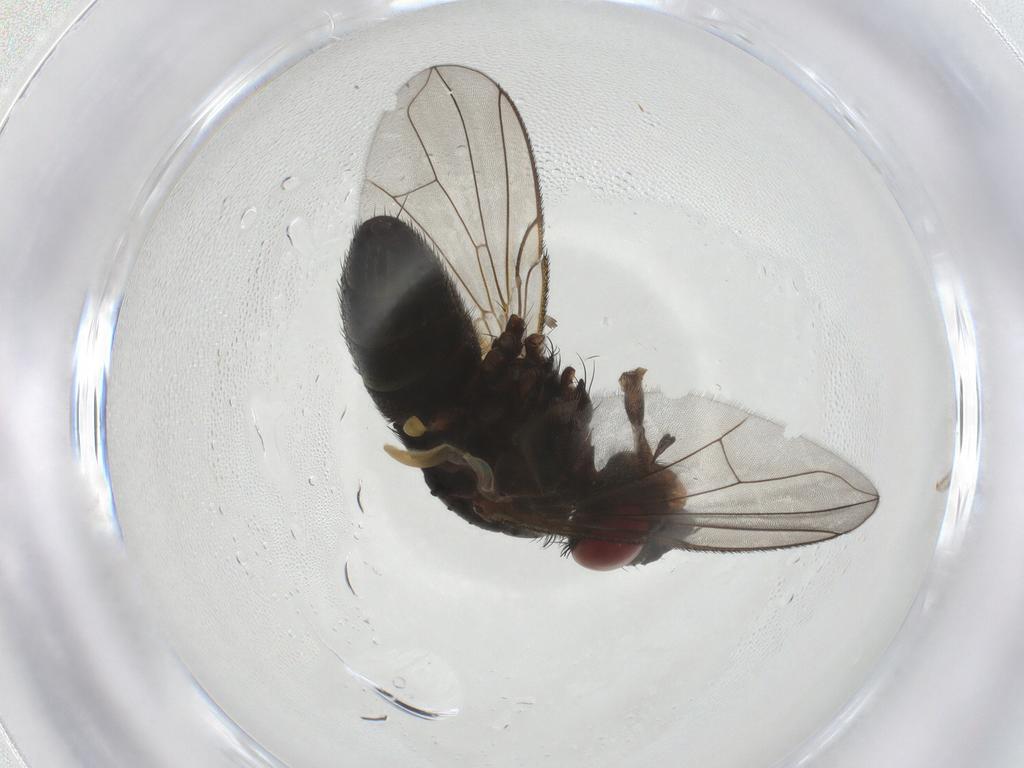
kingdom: Animalia
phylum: Arthropoda
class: Insecta
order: Diptera
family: Tachinidae
